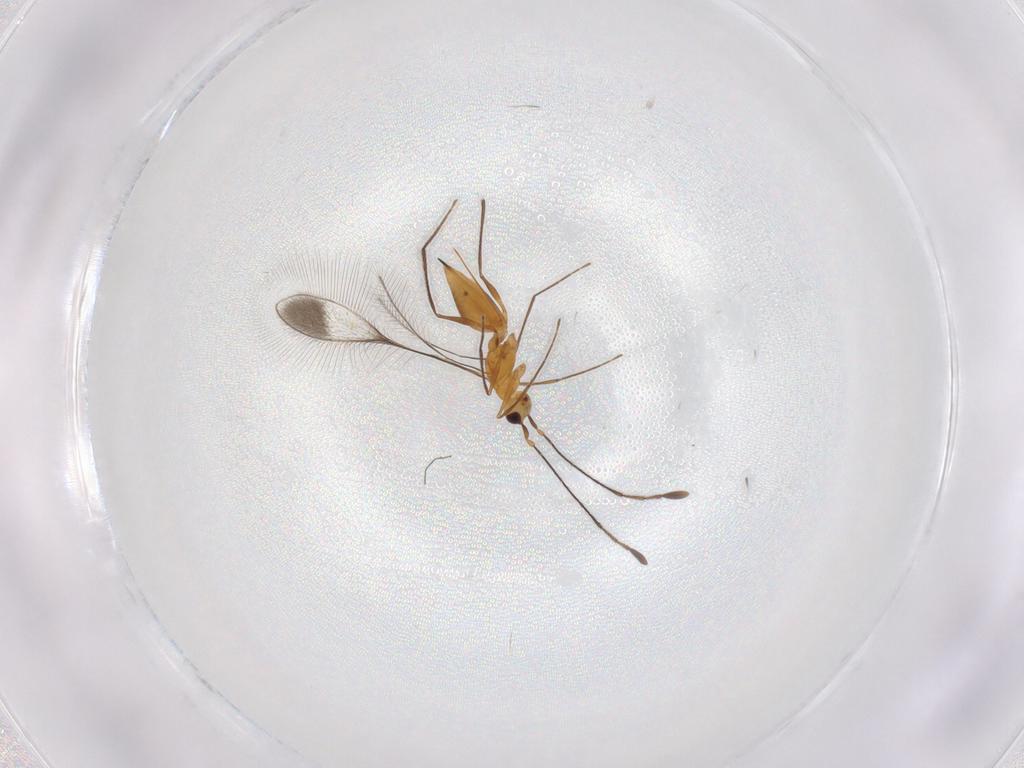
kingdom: Animalia
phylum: Arthropoda
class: Insecta
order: Hymenoptera
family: Mymaridae
